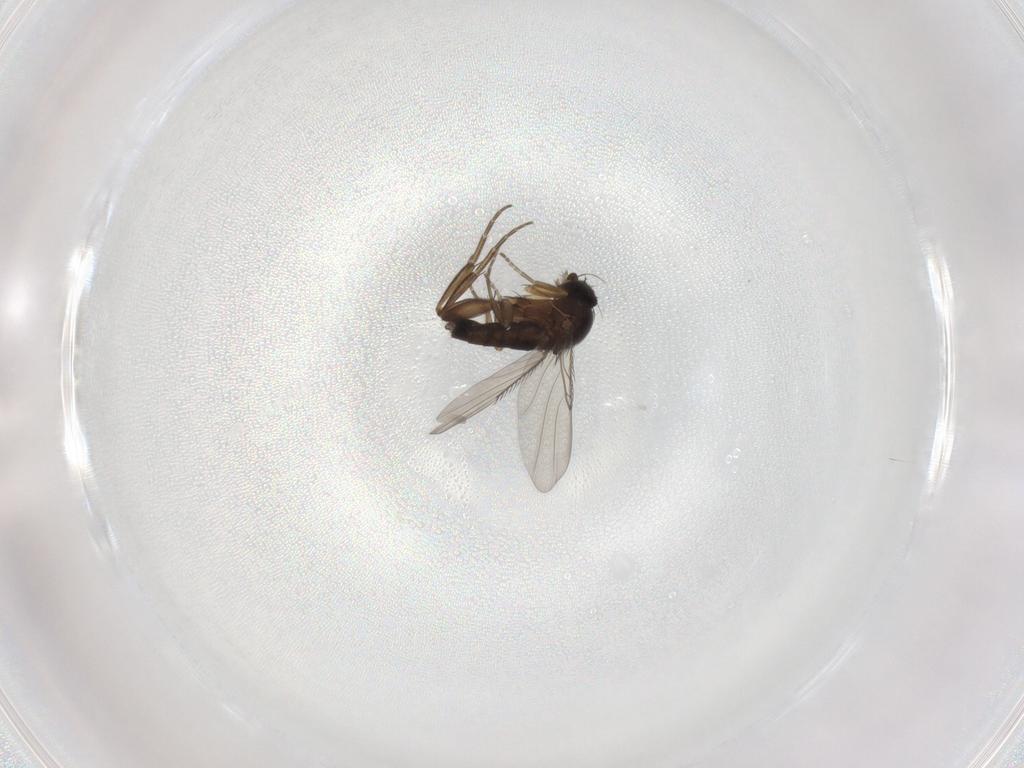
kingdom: Animalia
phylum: Arthropoda
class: Insecta
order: Diptera
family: Phoridae
